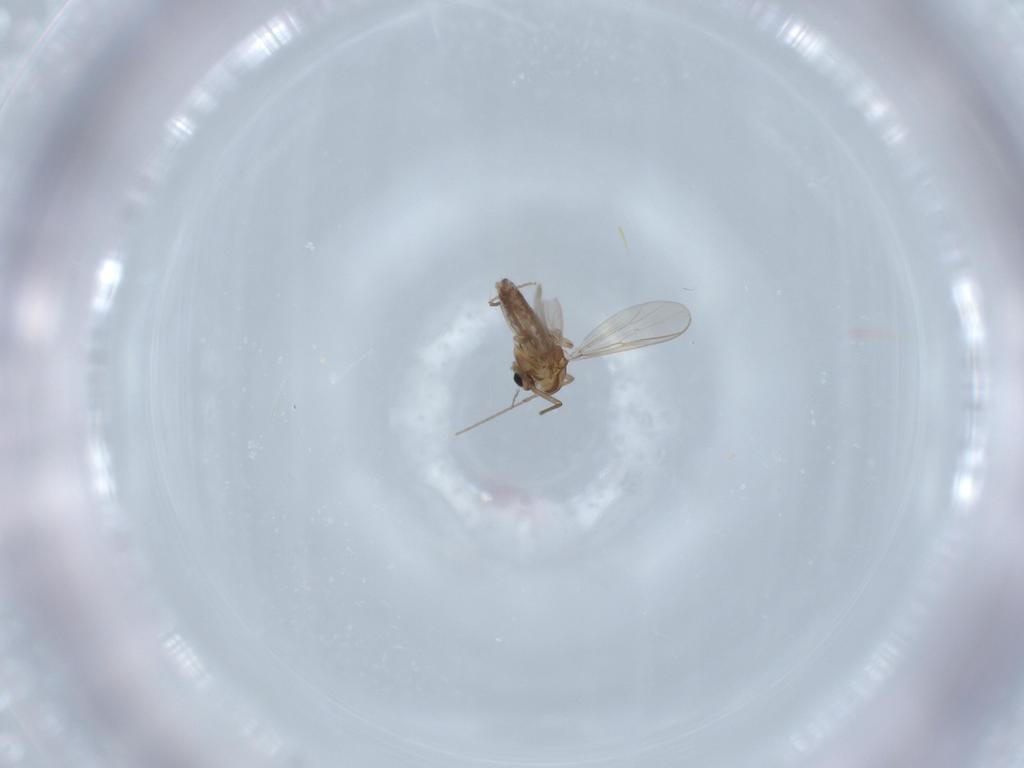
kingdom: Animalia
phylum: Arthropoda
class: Insecta
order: Diptera
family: Chironomidae
